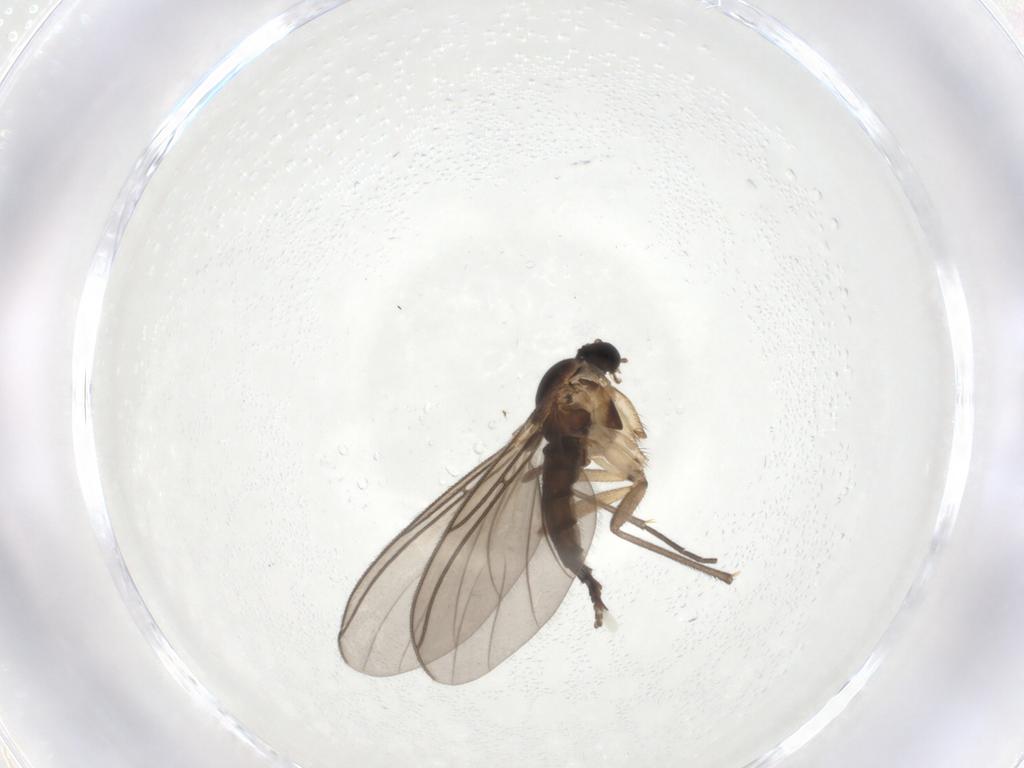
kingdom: Animalia
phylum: Arthropoda
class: Insecta
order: Diptera
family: Sciaridae
